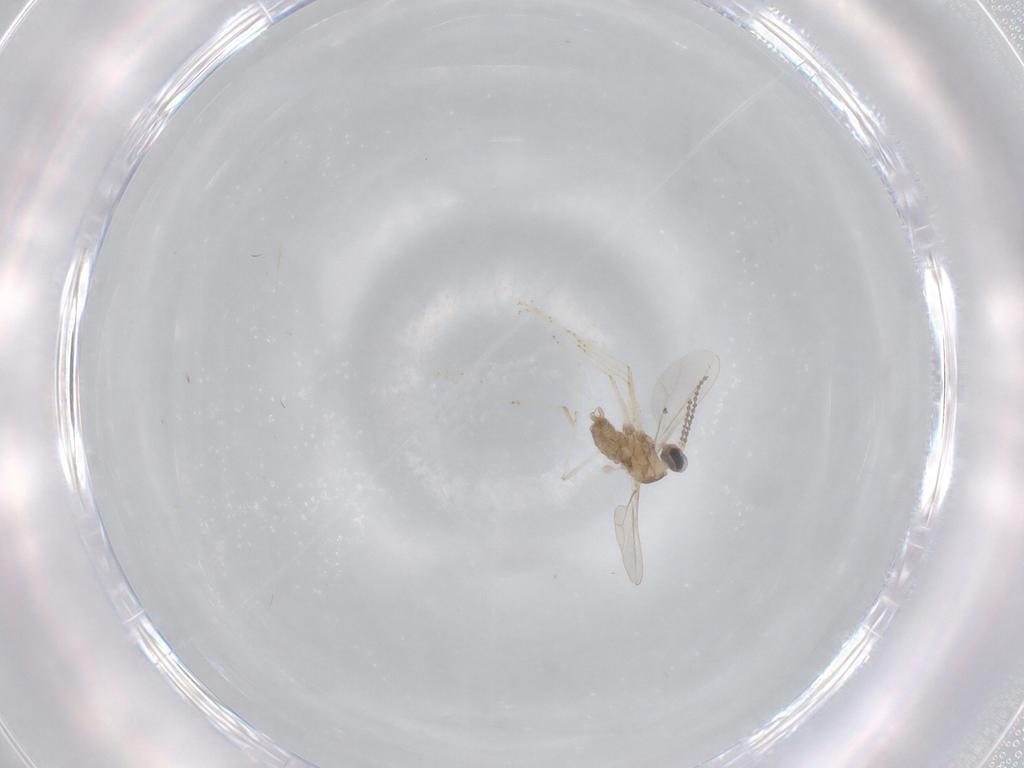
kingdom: Animalia
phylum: Arthropoda
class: Insecta
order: Diptera
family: Cecidomyiidae
